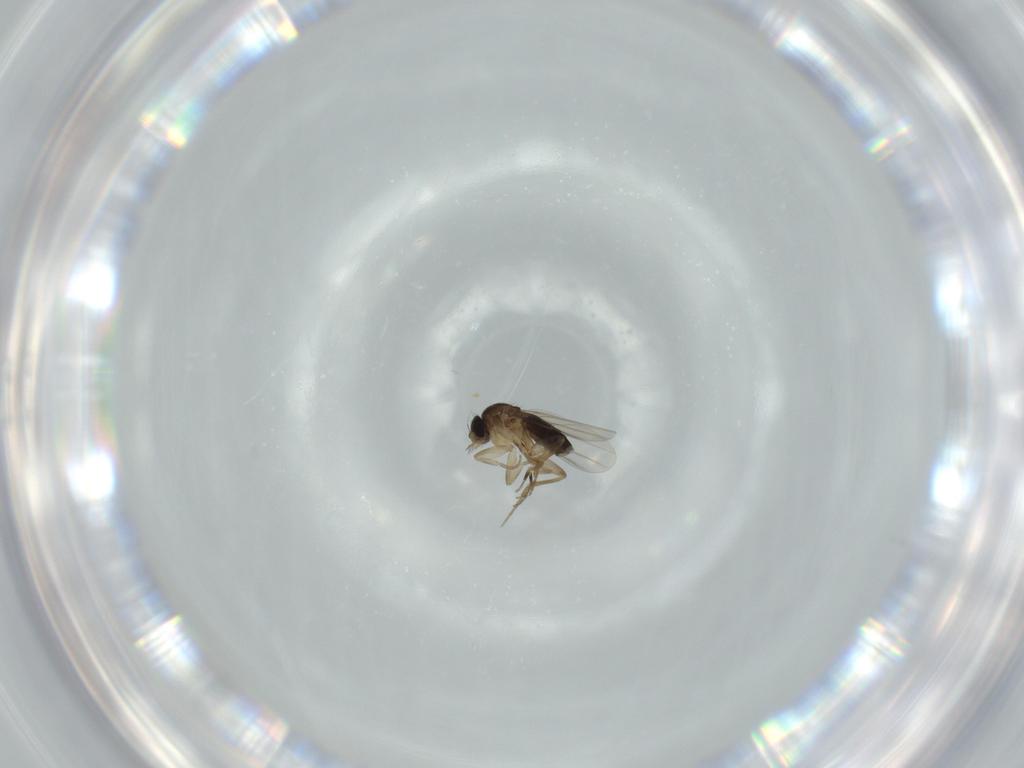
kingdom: Animalia
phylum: Arthropoda
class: Insecta
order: Diptera
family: Phoridae
